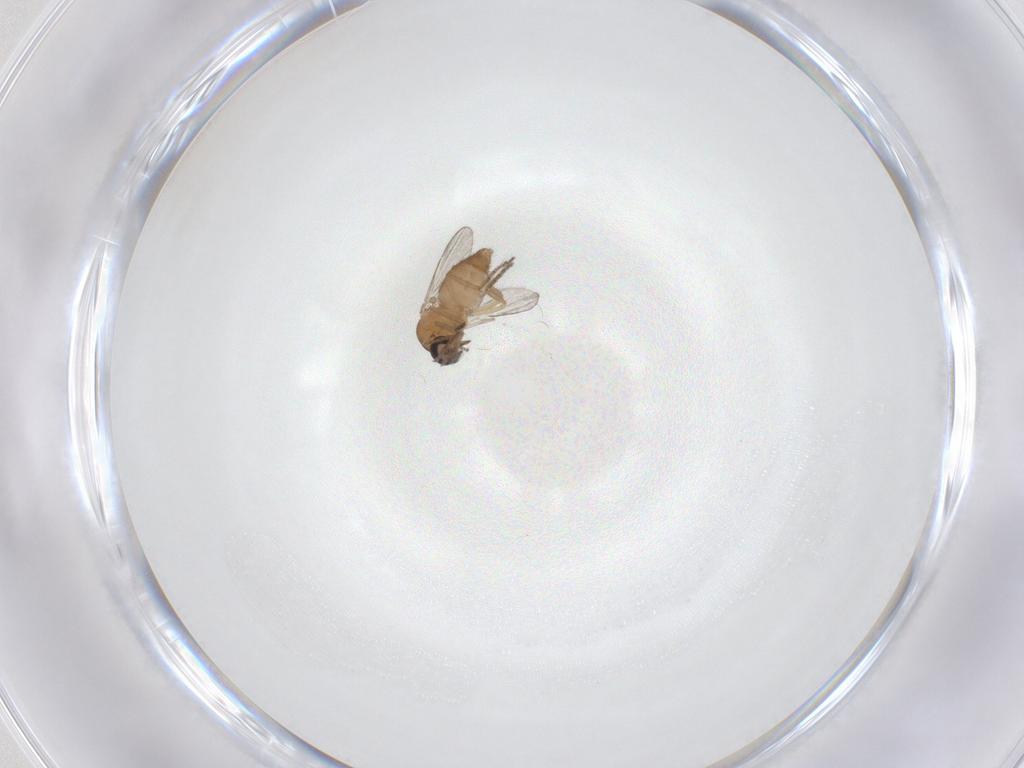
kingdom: Animalia
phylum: Arthropoda
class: Insecta
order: Diptera
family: Ceratopogonidae
